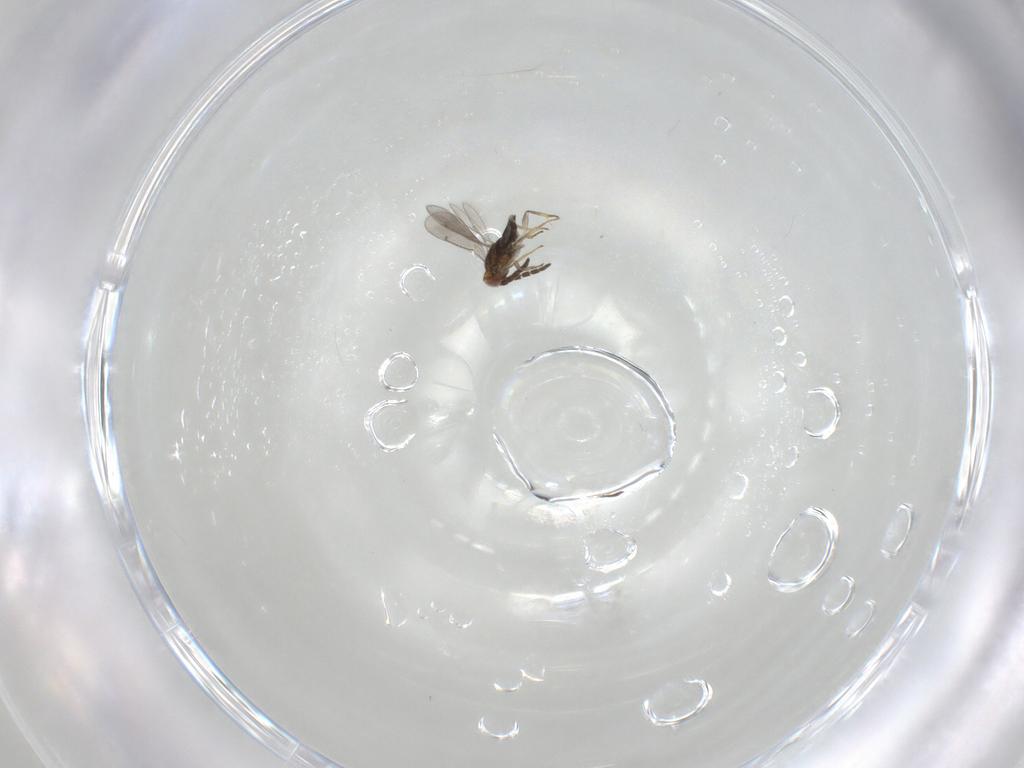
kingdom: Animalia
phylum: Arthropoda
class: Insecta
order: Hymenoptera
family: Ichneumonidae
